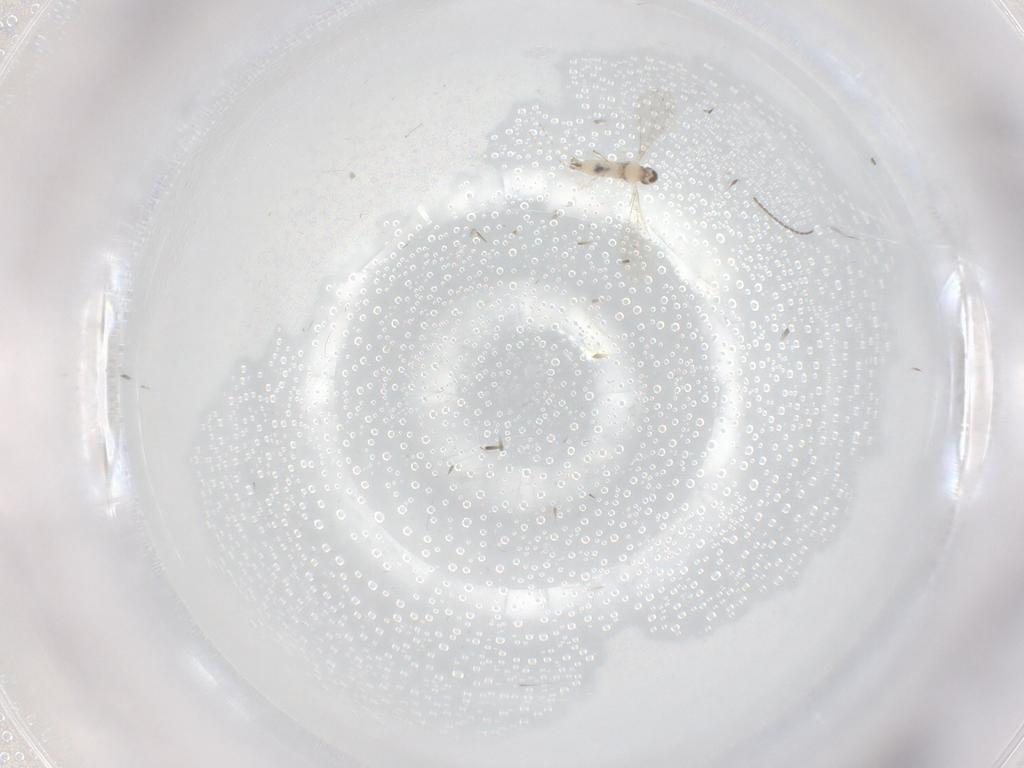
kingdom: Animalia
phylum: Arthropoda
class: Insecta
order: Diptera
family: Cecidomyiidae
